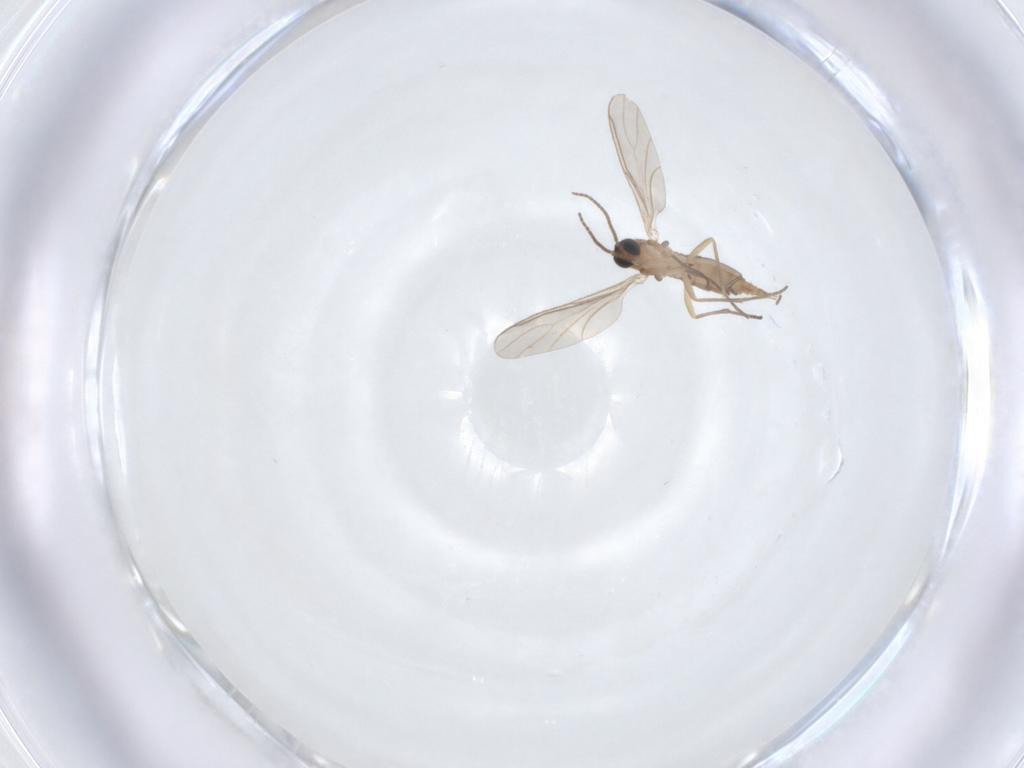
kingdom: Animalia
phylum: Arthropoda
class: Insecta
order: Diptera
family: Sciaridae
